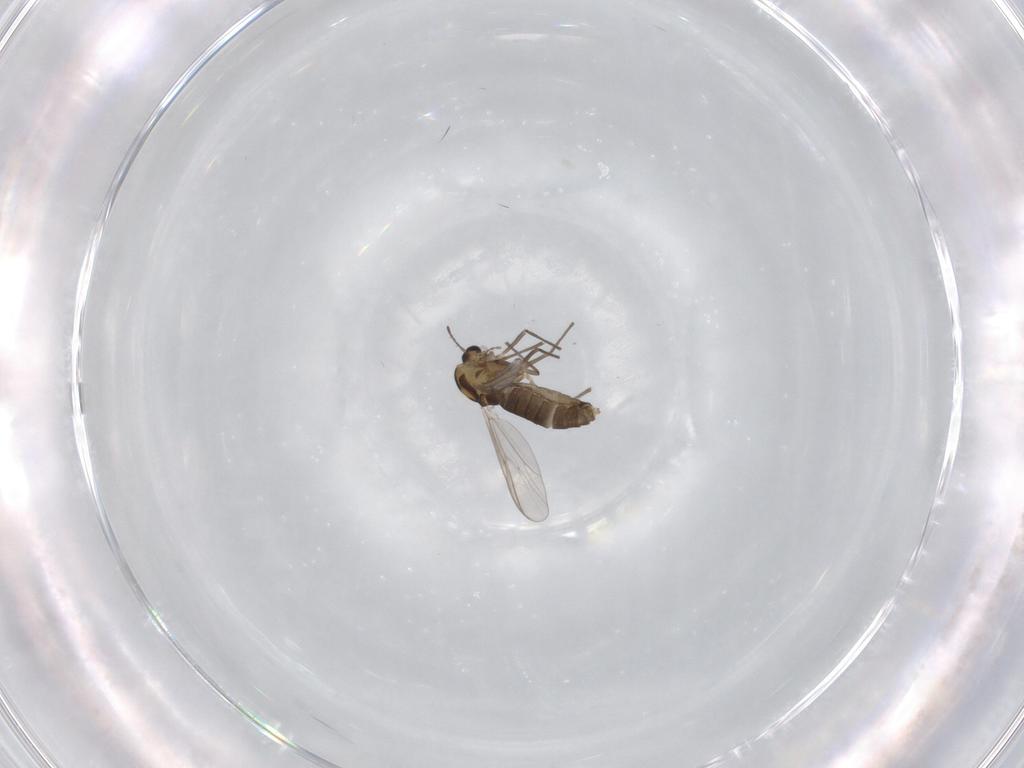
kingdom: Animalia
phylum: Arthropoda
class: Insecta
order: Diptera
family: Chironomidae
